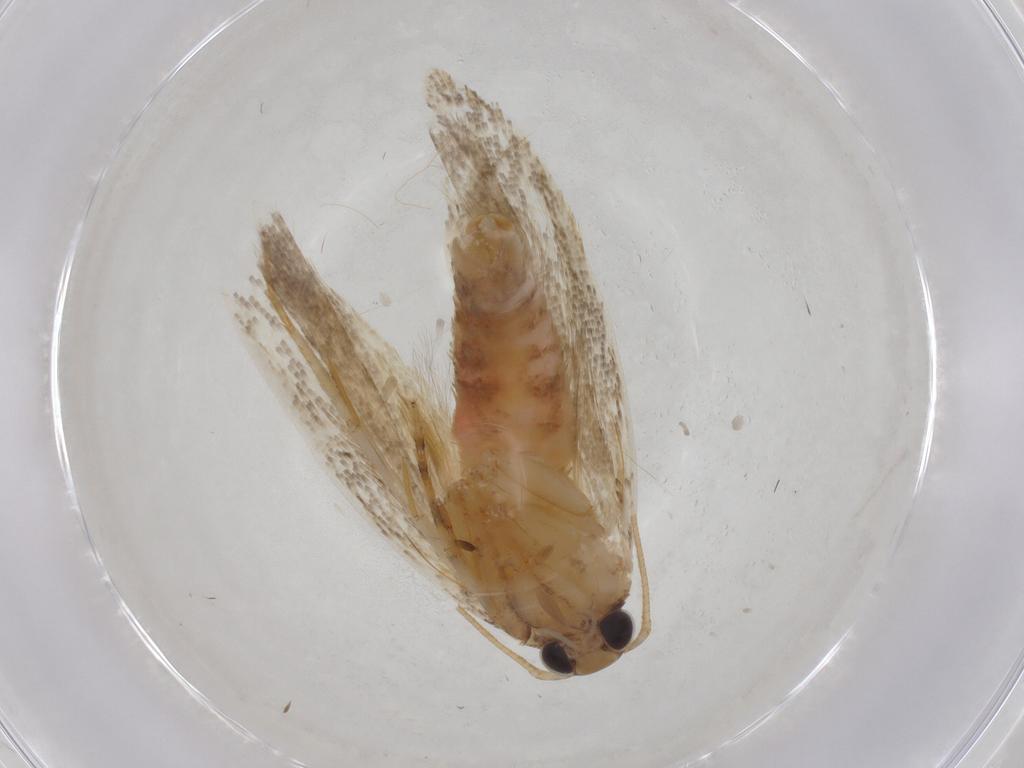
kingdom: Animalia
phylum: Arthropoda
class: Insecta
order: Lepidoptera
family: Gelechiidae
